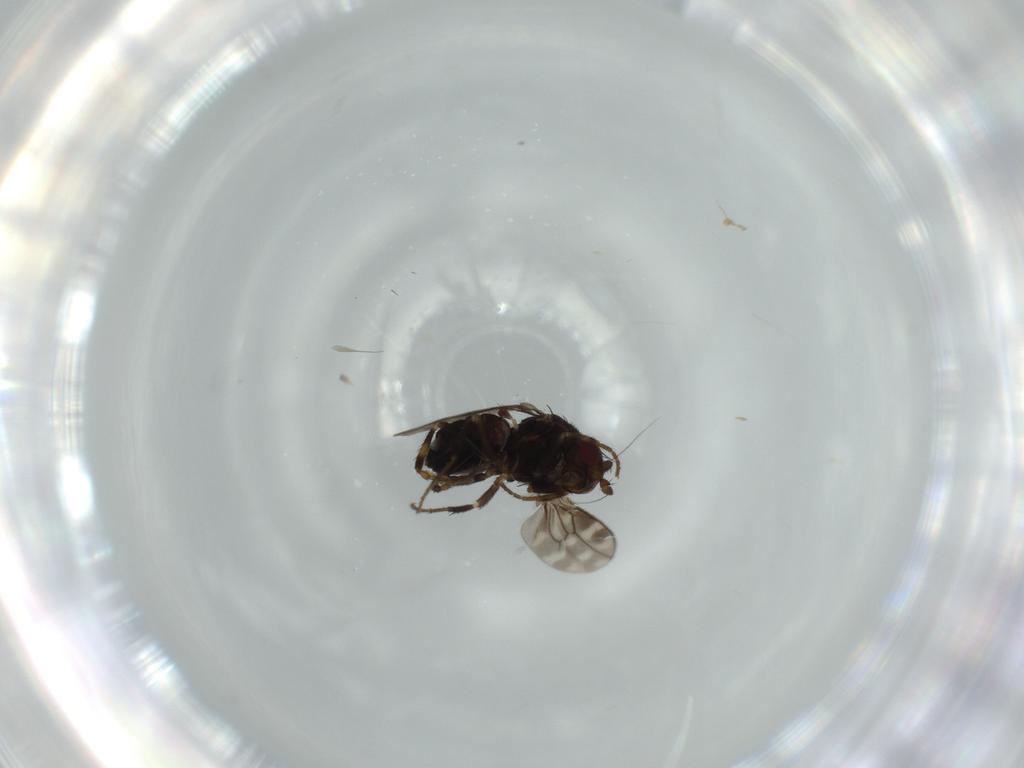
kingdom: Animalia
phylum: Arthropoda
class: Insecta
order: Diptera
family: Sphaeroceridae
